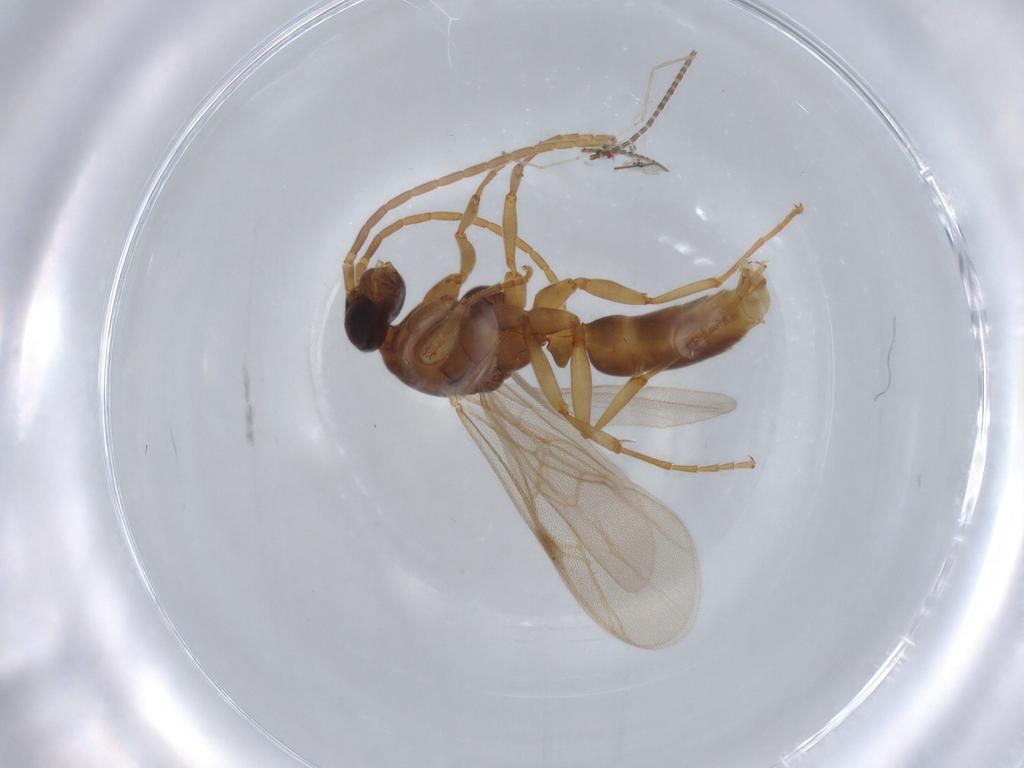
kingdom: Animalia
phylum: Arthropoda
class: Insecta
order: Hymenoptera
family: Formicidae
